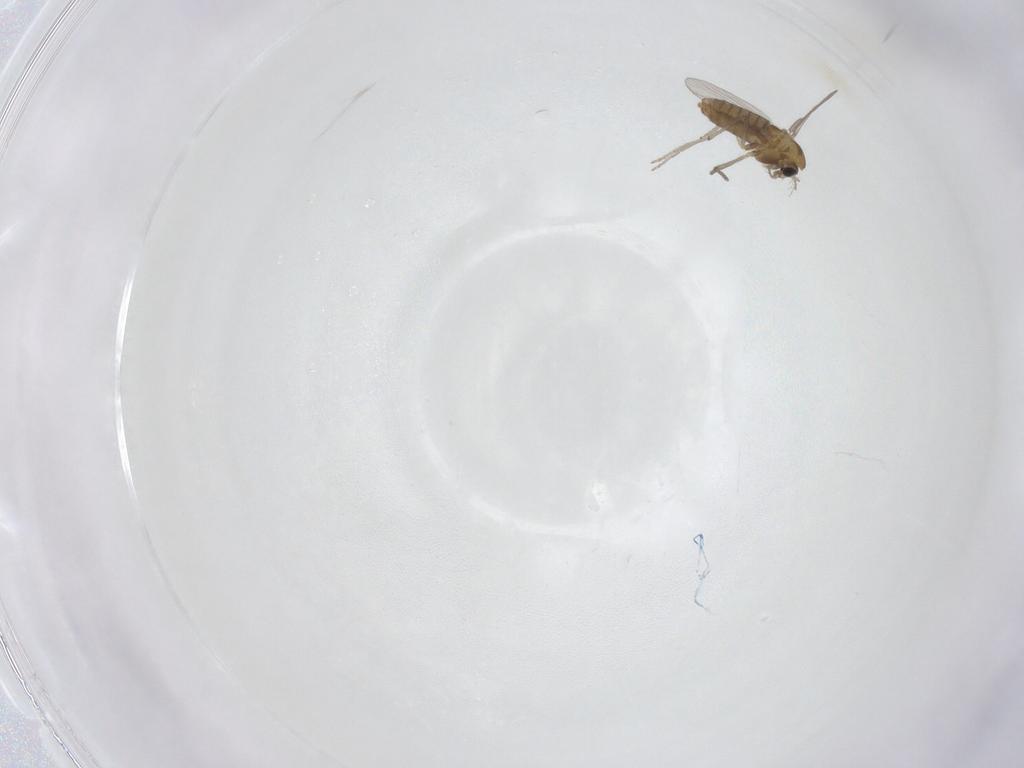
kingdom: Animalia
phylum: Arthropoda
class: Insecta
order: Diptera
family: Chironomidae
